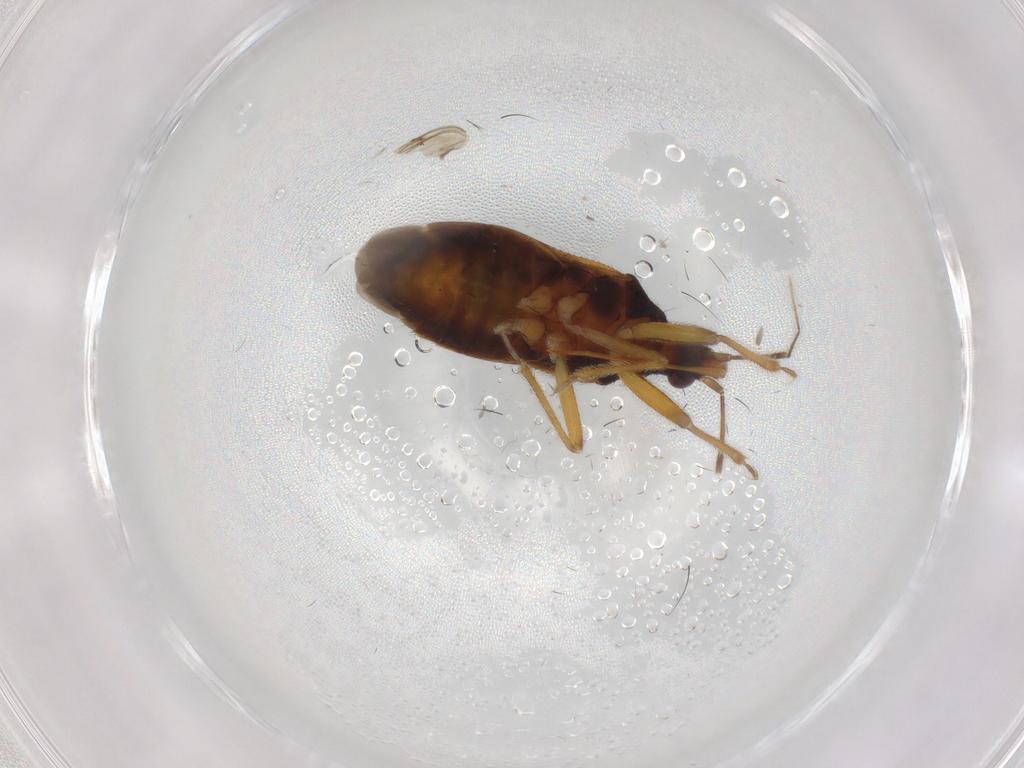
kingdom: Animalia
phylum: Arthropoda
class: Insecta
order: Hemiptera
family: Anthocoridae
